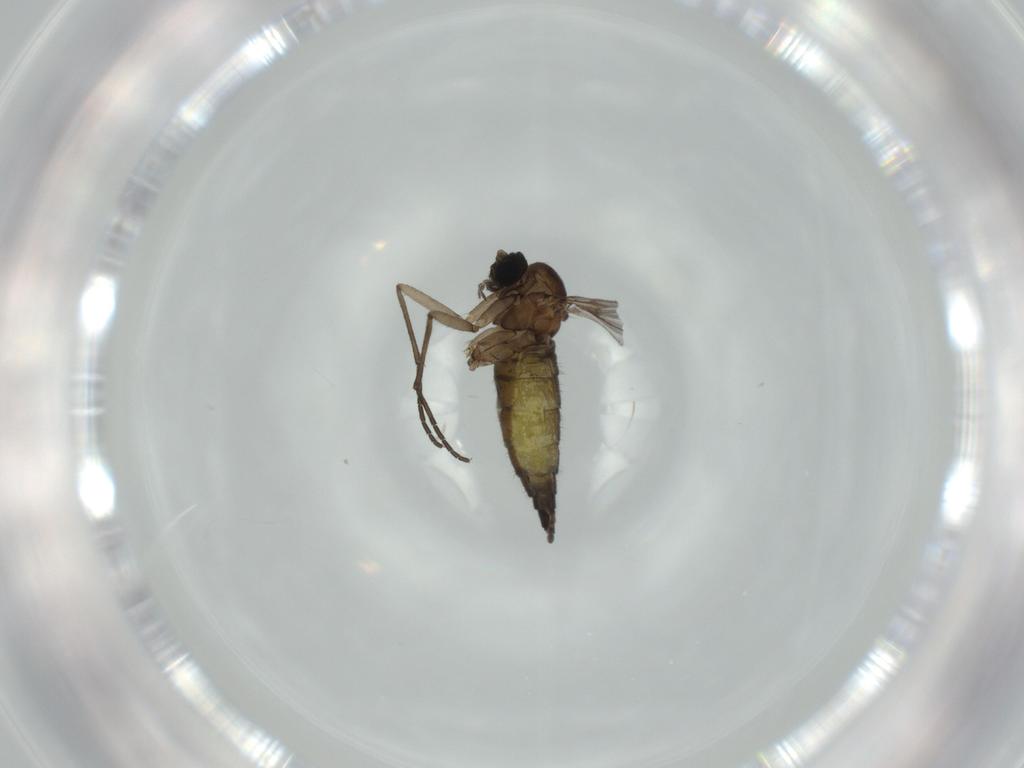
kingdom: Animalia
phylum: Arthropoda
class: Insecta
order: Diptera
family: Sciaridae
